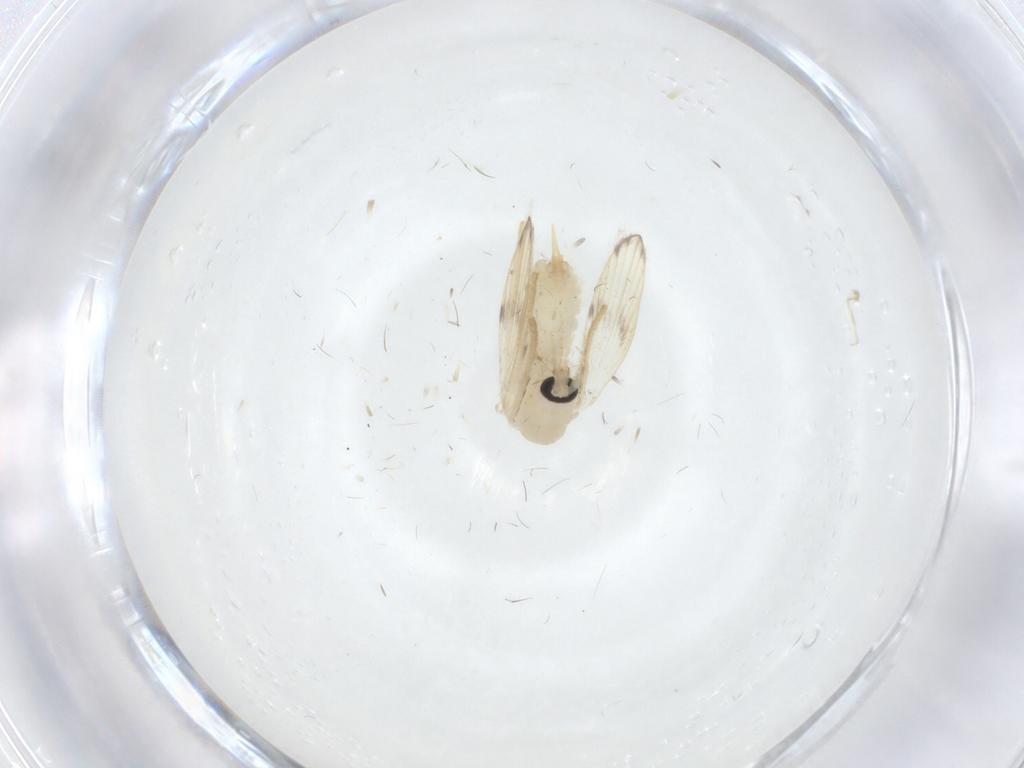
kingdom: Animalia
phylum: Arthropoda
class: Insecta
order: Diptera
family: Psychodidae
